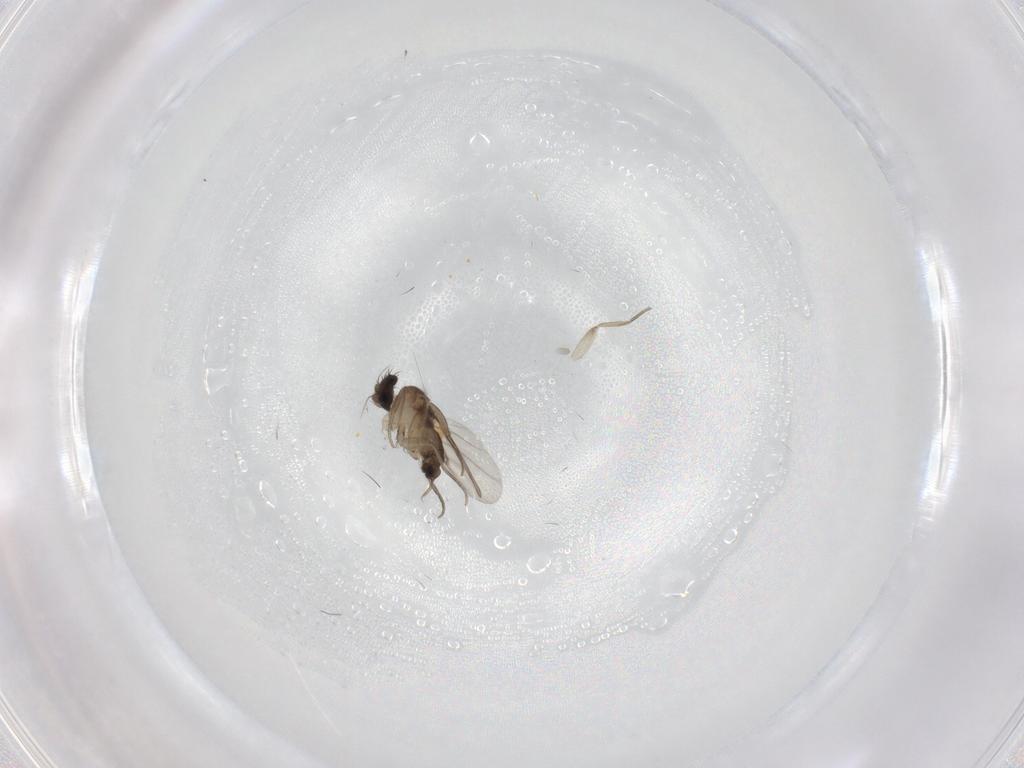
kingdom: Animalia
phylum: Arthropoda
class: Insecta
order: Diptera
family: Phoridae
